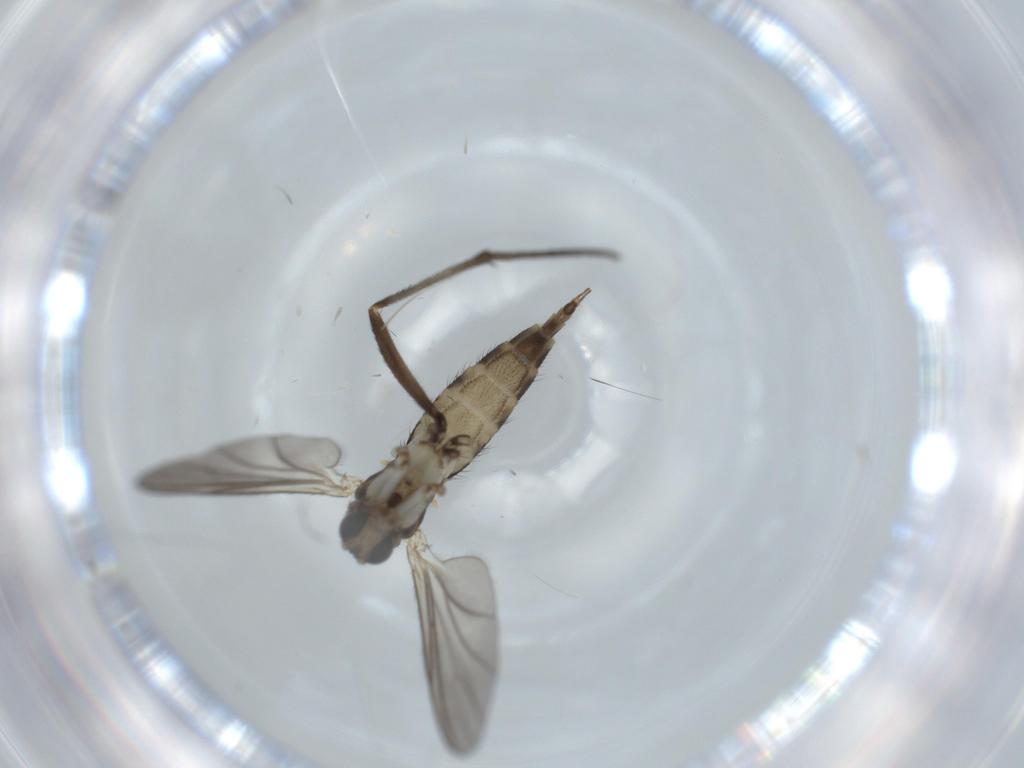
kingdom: Animalia
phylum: Arthropoda
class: Insecta
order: Diptera
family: Sciaridae
